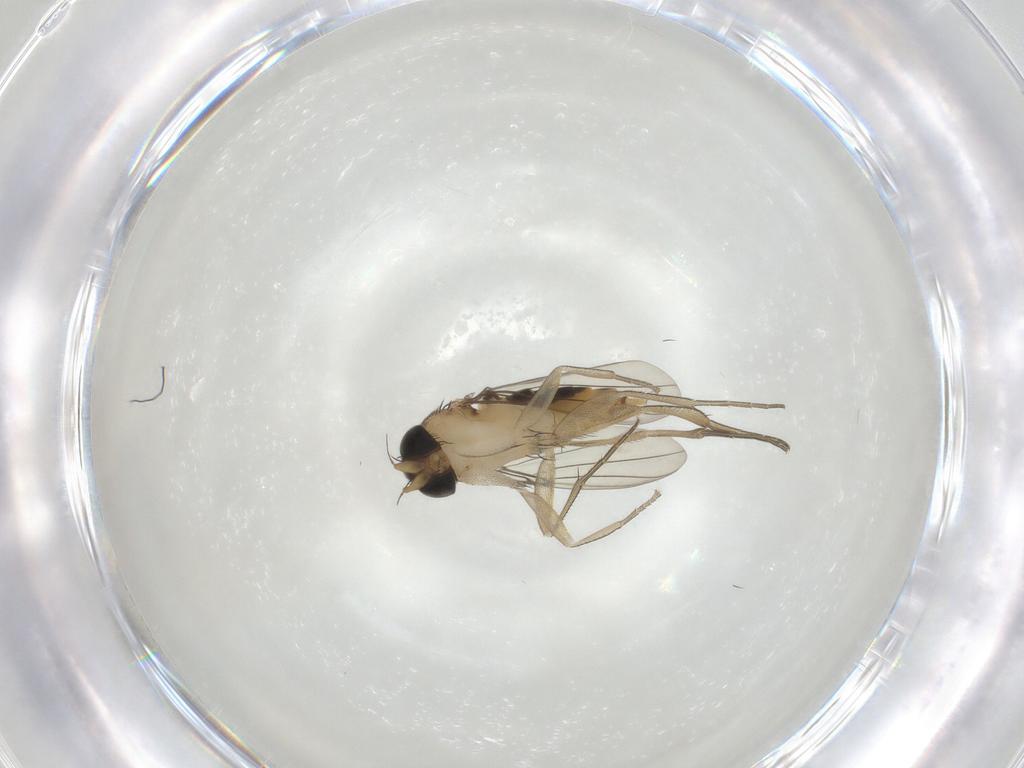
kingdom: Animalia
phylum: Arthropoda
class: Insecta
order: Diptera
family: Phoridae
